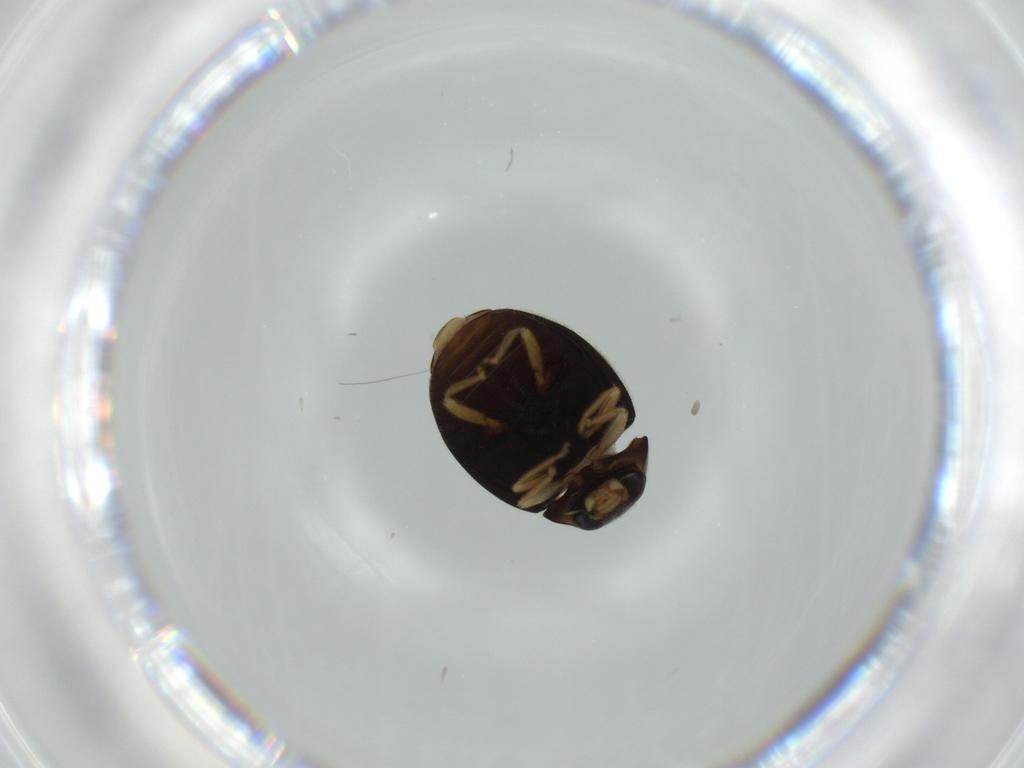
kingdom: Animalia
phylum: Arthropoda
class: Insecta
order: Coleoptera
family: Coccinellidae
